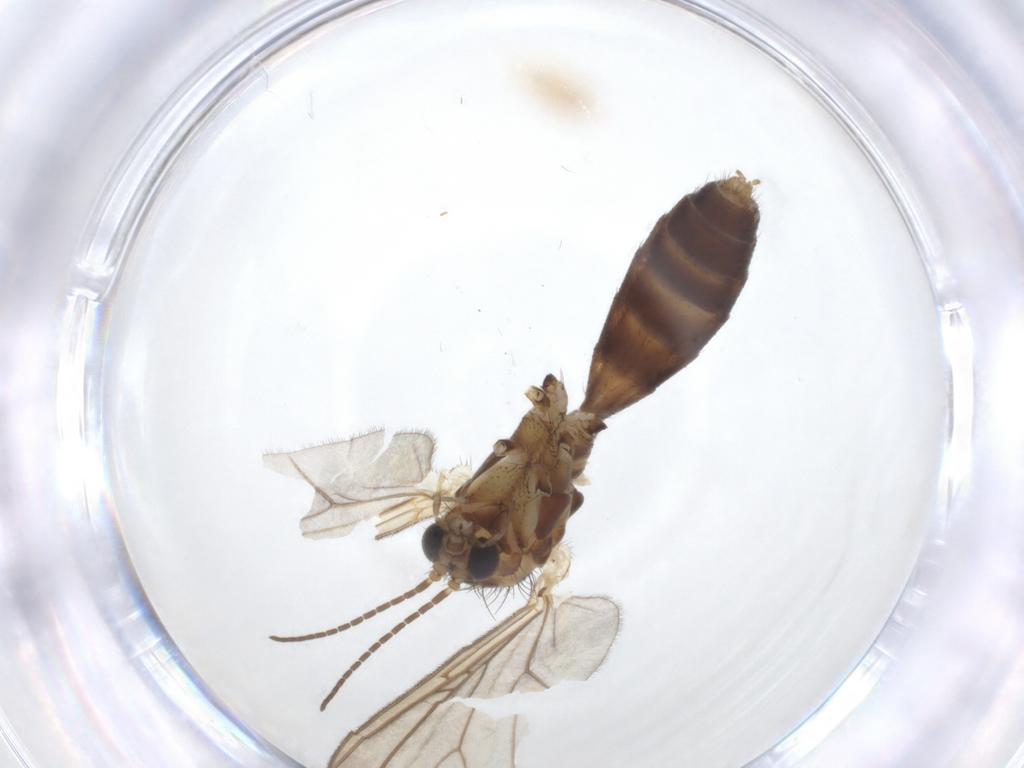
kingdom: Animalia
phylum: Arthropoda
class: Insecta
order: Diptera
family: Mycetophilidae
